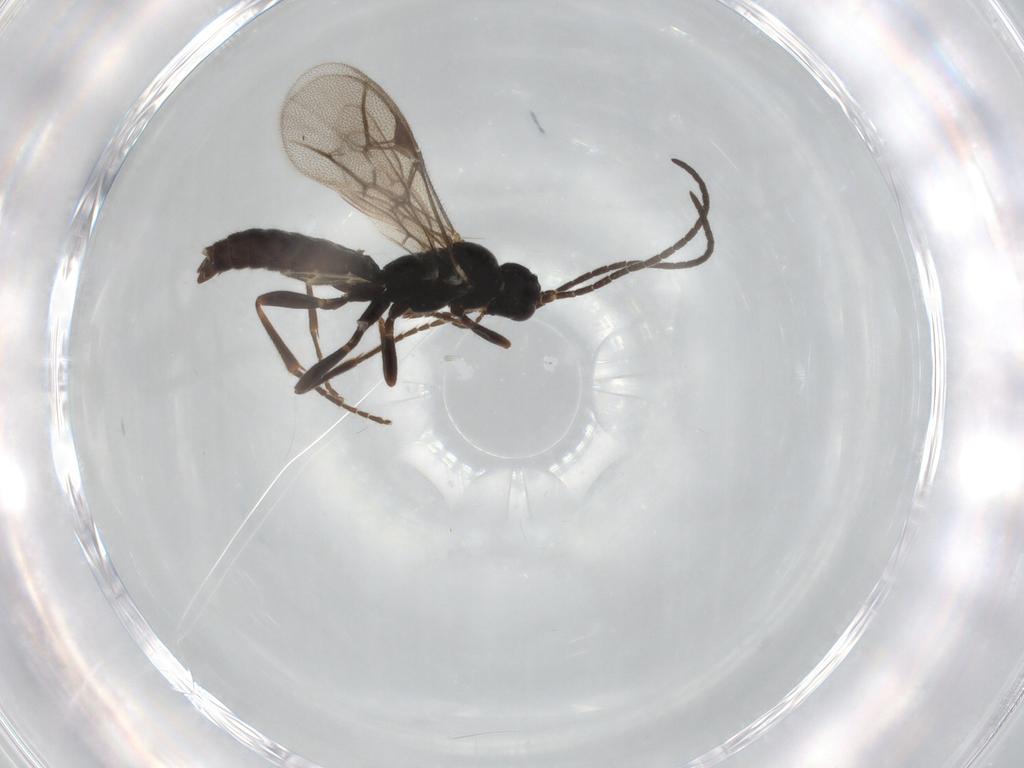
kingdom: Animalia
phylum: Arthropoda
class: Insecta
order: Hymenoptera
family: Ichneumonidae
